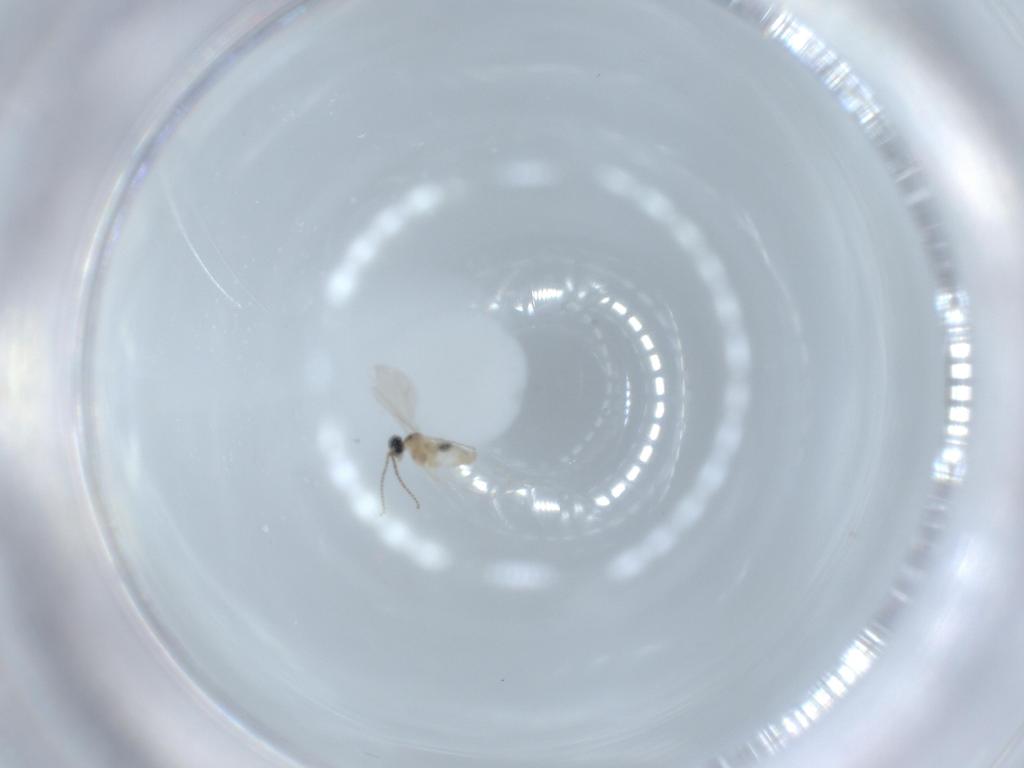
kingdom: Animalia
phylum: Arthropoda
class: Insecta
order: Diptera
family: Cecidomyiidae
